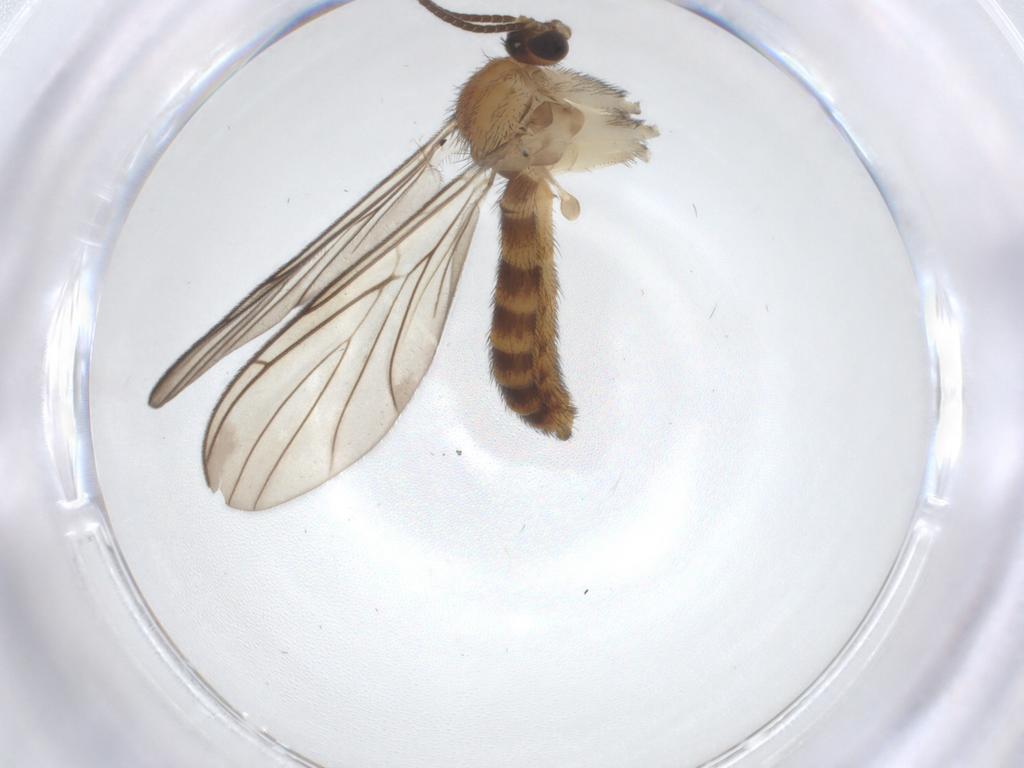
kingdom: Animalia
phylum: Arthropoda
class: Insecta
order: Diptera
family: Keroplatidae
